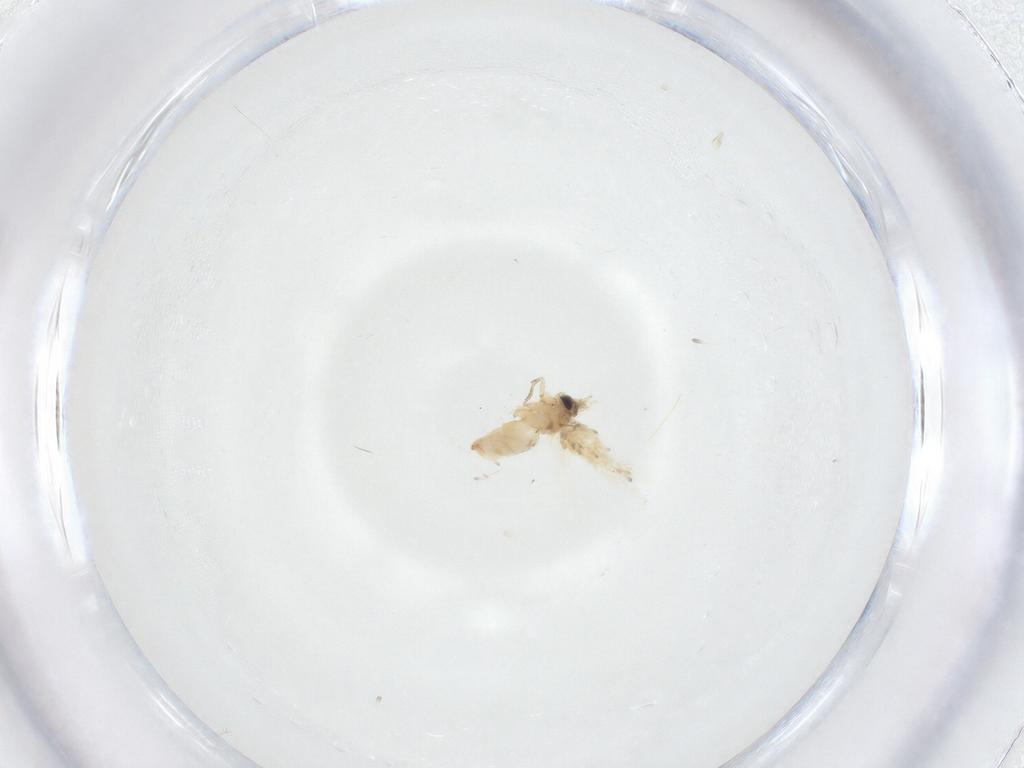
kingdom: Animalia
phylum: Arthropoda
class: Insecta
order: Lepidoptera
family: Crambidae
